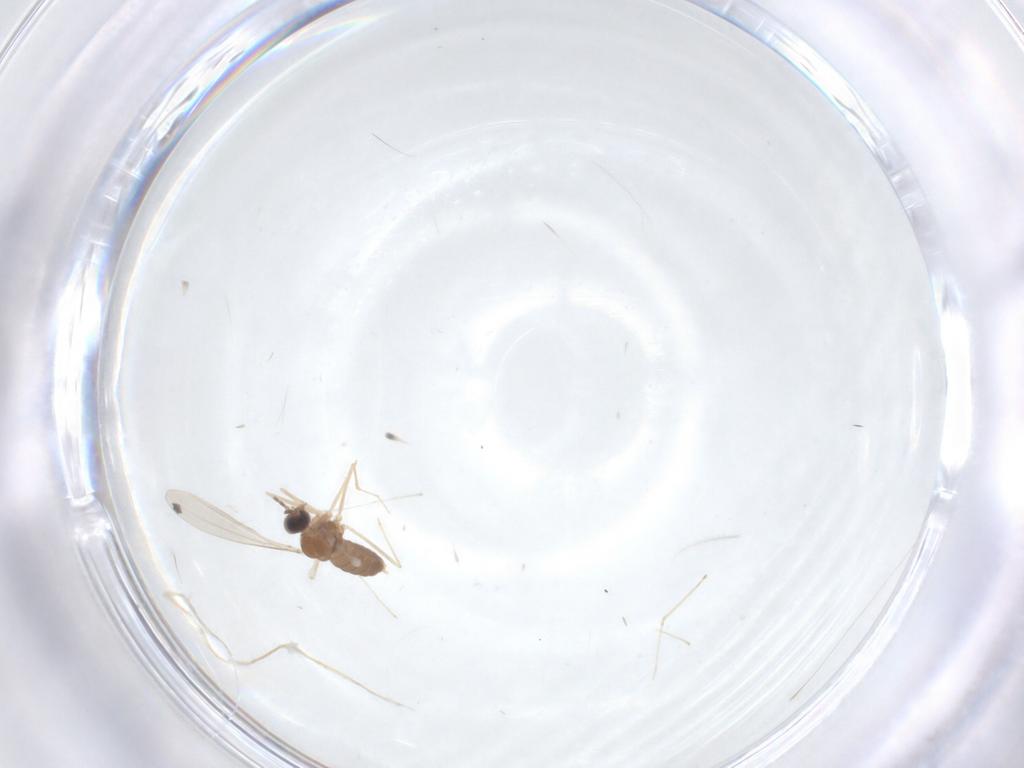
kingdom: Animalia
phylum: Arthropoda
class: Insecta
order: Diptera
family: Cecidomyiidae
